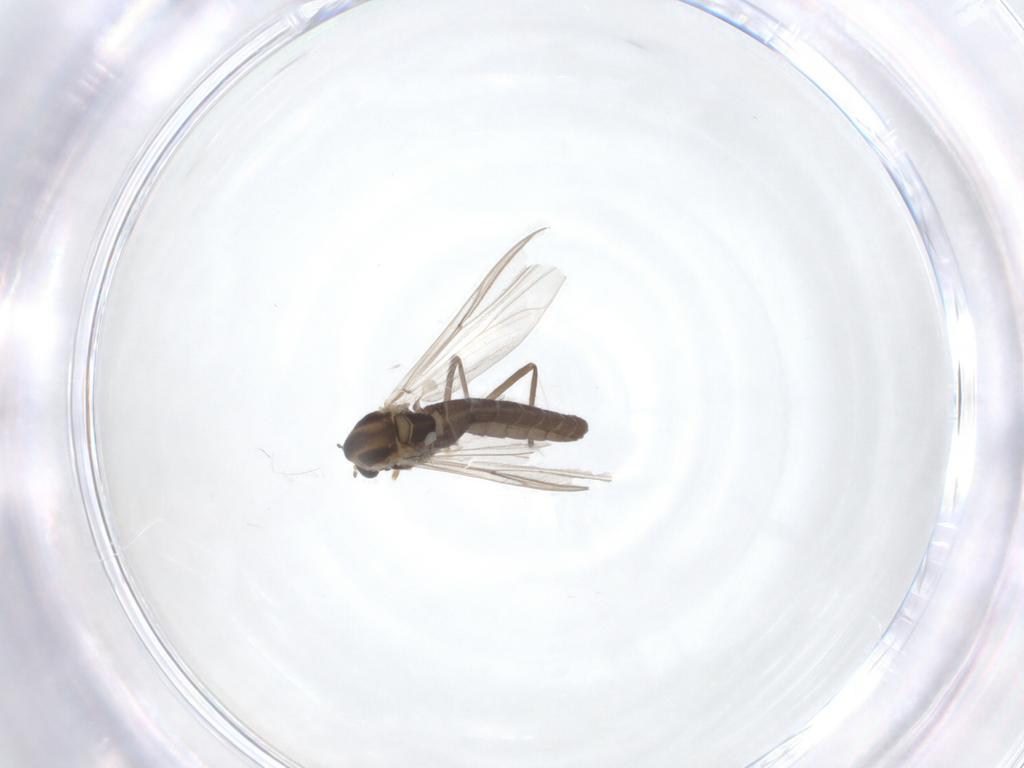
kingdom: Animalia
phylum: Arthropoda
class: Insecta
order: Diptera
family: Chironomidae
